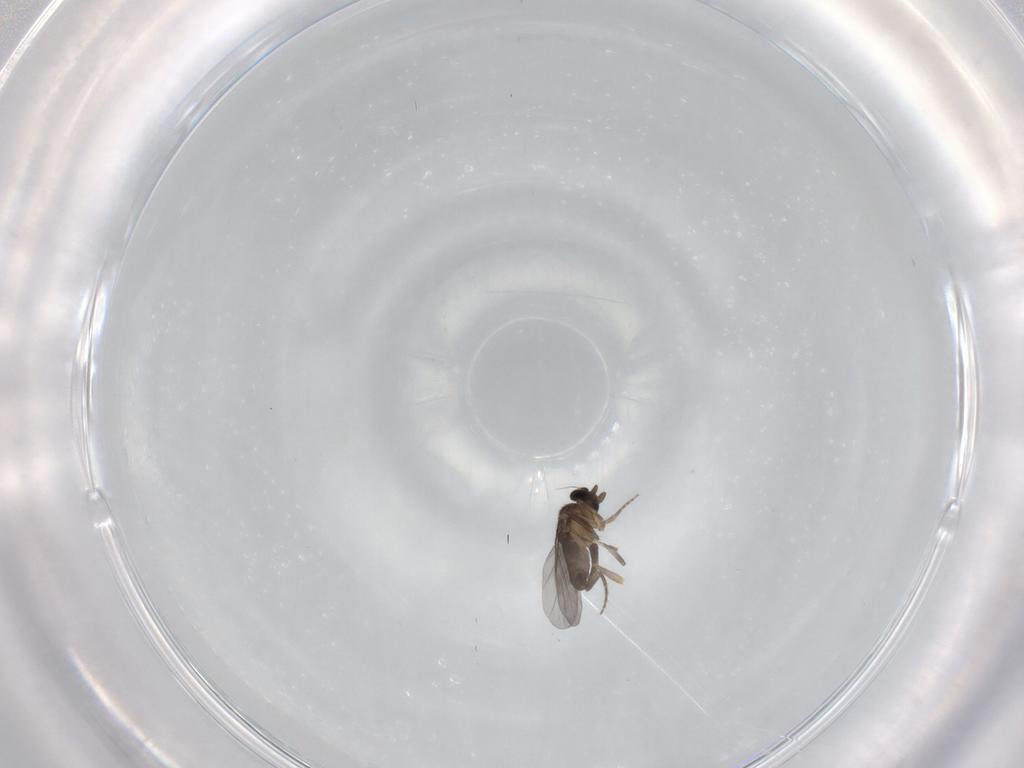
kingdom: Animalia
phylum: Arthropoda
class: Insecta
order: Diptera
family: Phoridae
